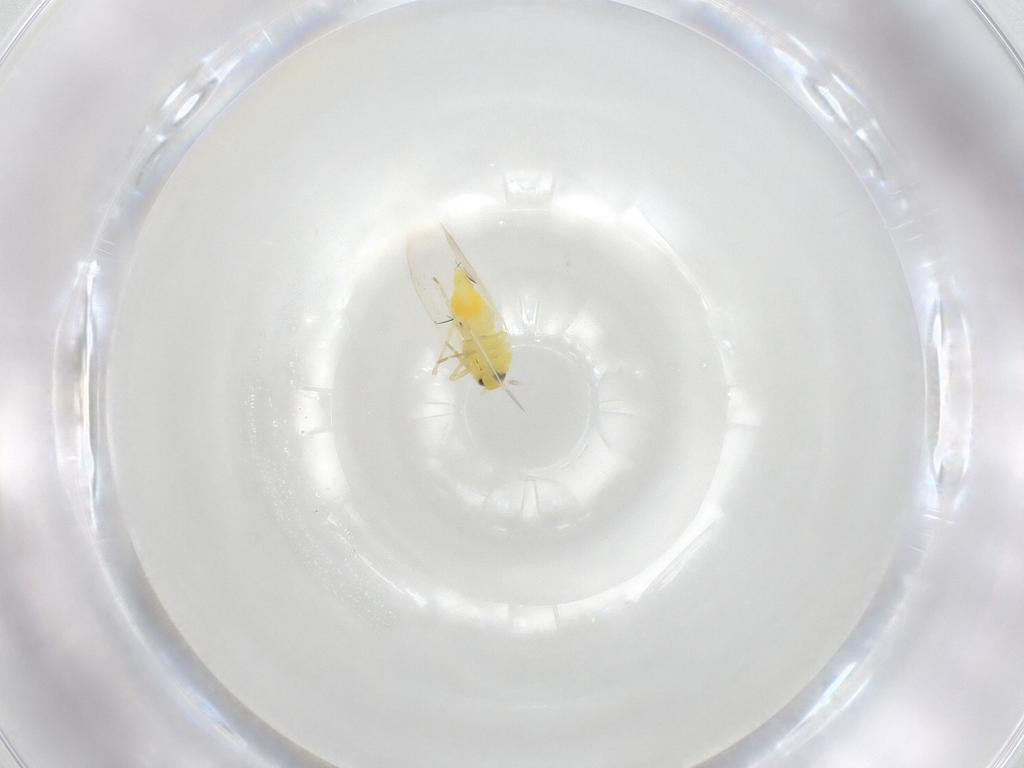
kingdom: Animalia
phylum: Arthropoda
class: Insecta
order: Hemiptera
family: Aleyrodidae
